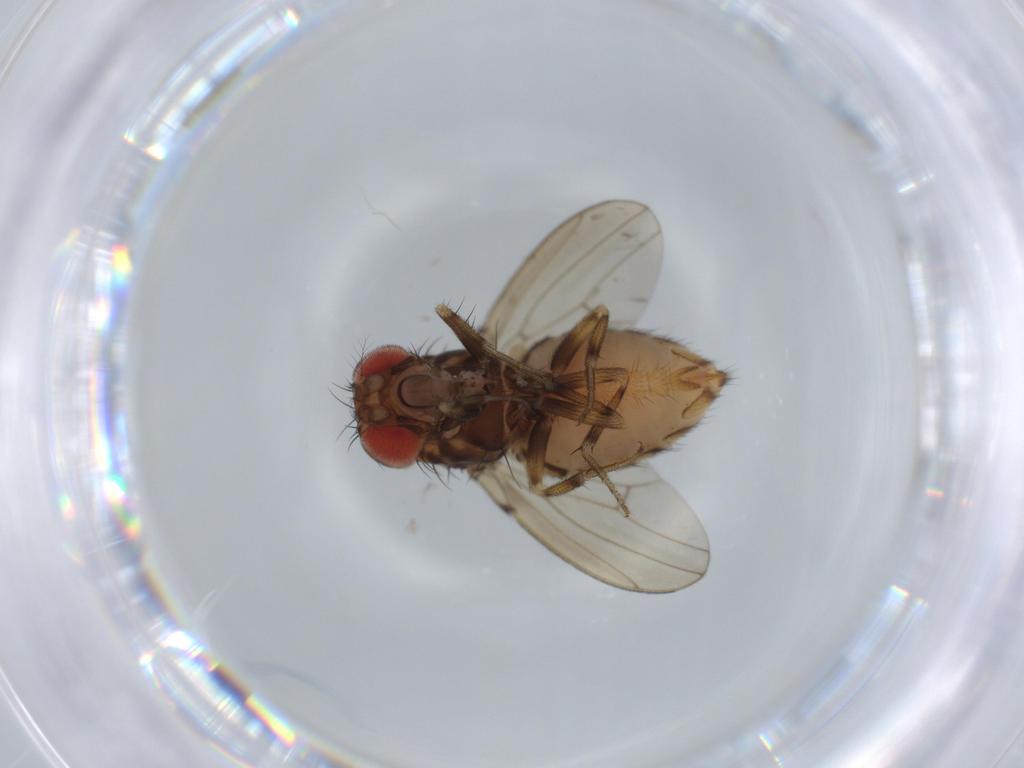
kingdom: Animalia
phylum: Arthropoda
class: Insecta
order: Diptera
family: Drosophilidae
